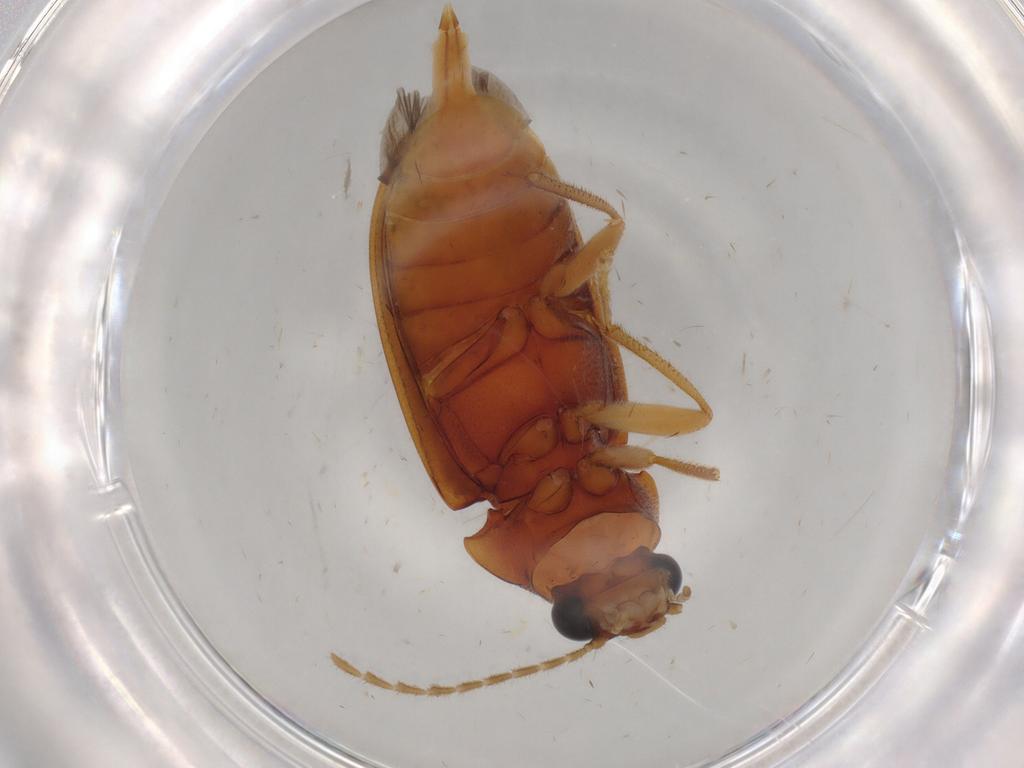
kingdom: Animalia
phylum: Arthropoda
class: Insecta
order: Coleoptera
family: Ptilodactylidae
